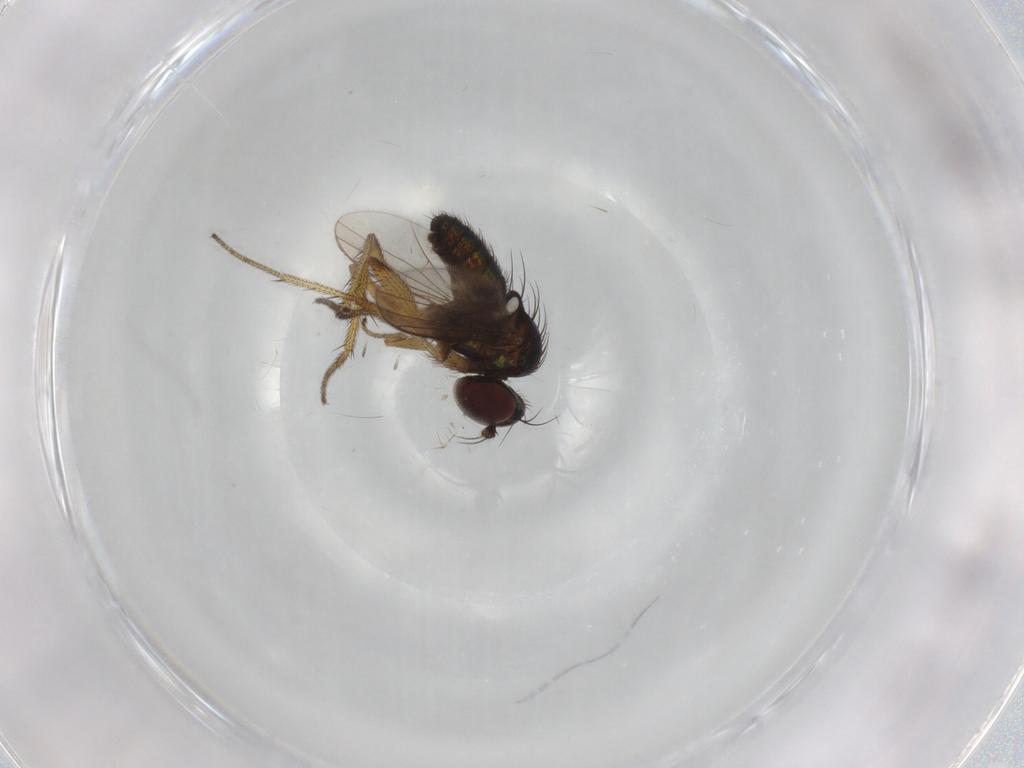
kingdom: Animalia
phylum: Arthropoda
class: Insecta
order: Diptera
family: Chironomidae
